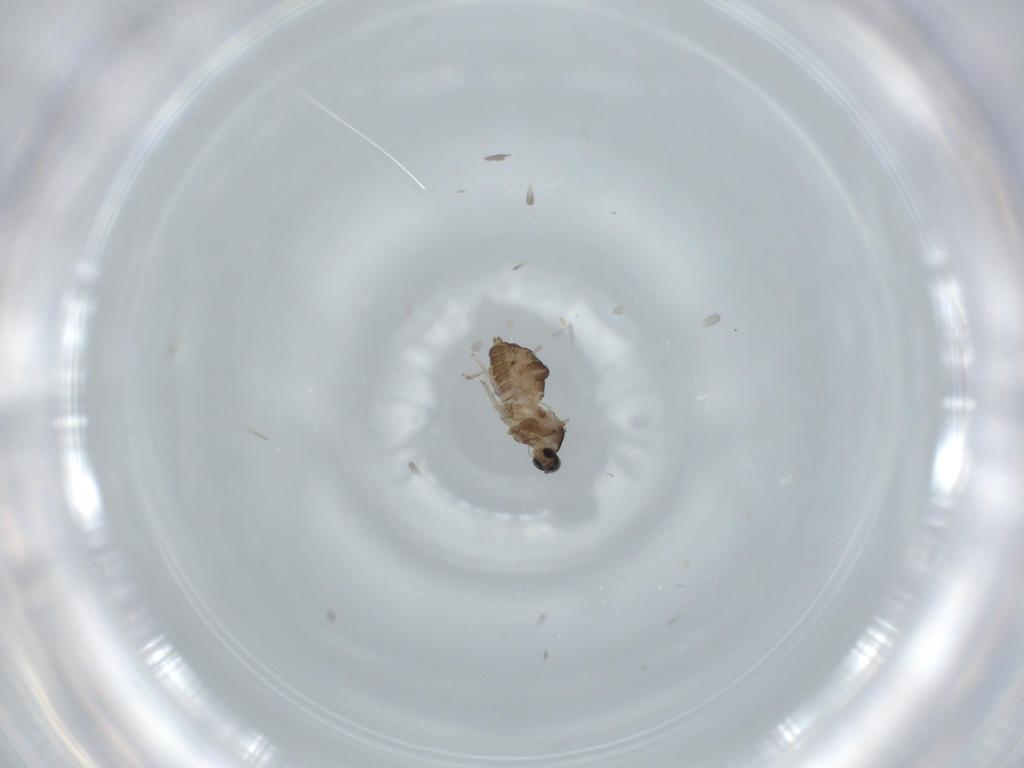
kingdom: Animalia
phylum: Arthropoda
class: Insecta
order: Diptera
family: Cecidomyiidae
